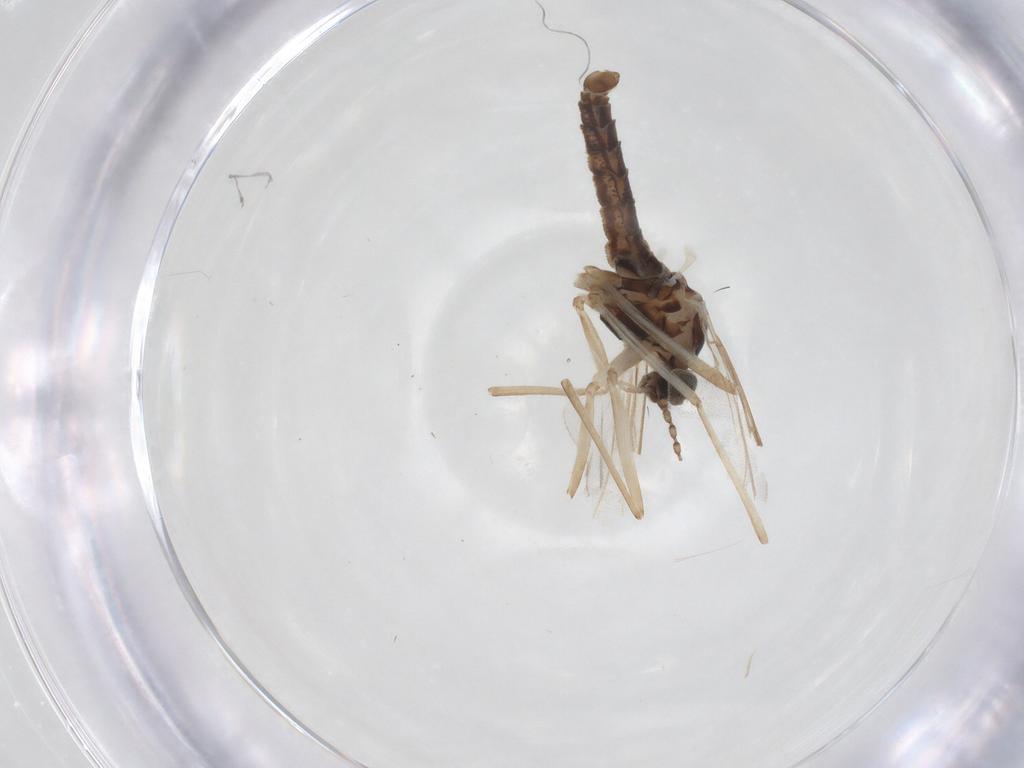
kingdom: Animalia
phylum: Arthropoda
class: Insecta
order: Diptera
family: Cecidomyiidae
